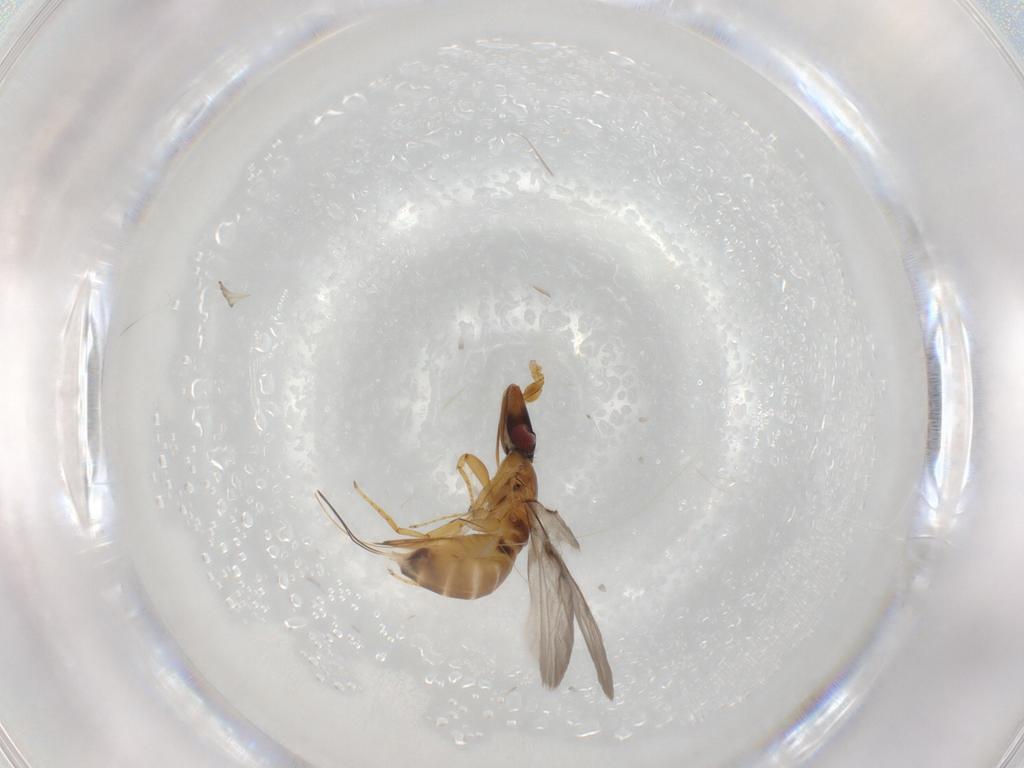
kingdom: Animalia
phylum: Arthropoda
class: Insecta
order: Hymenoptera
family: Agaonidae
